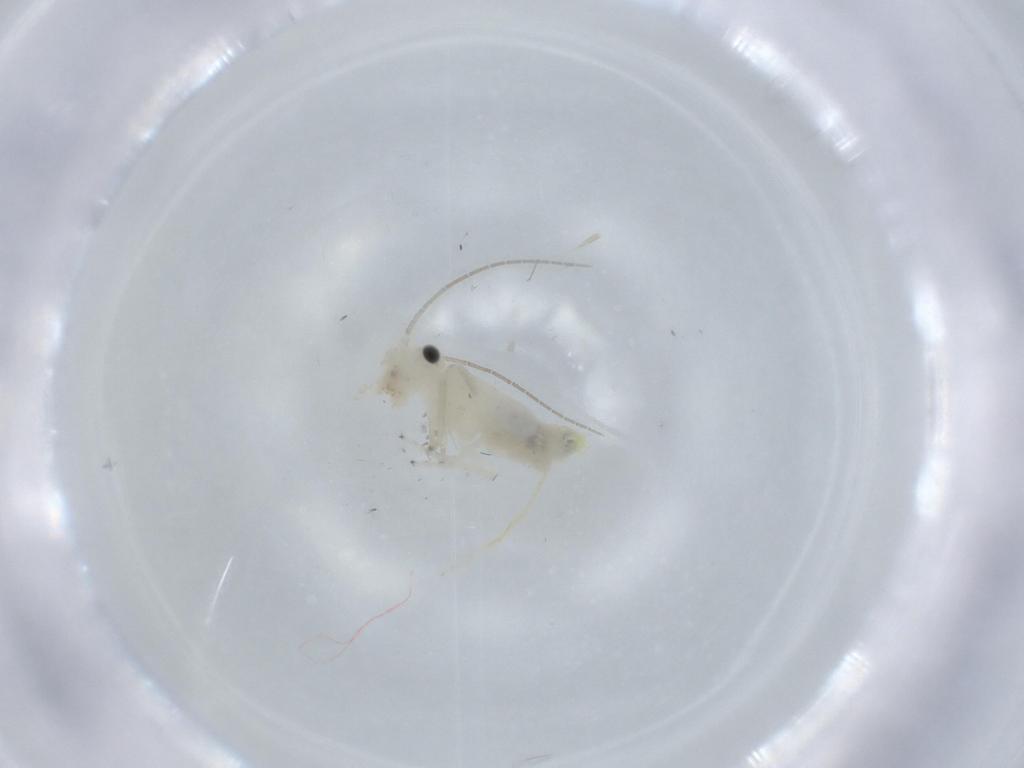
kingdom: Animalia
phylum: Arthropoda
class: Insecta
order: Psocodea
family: Caeciliusidae
